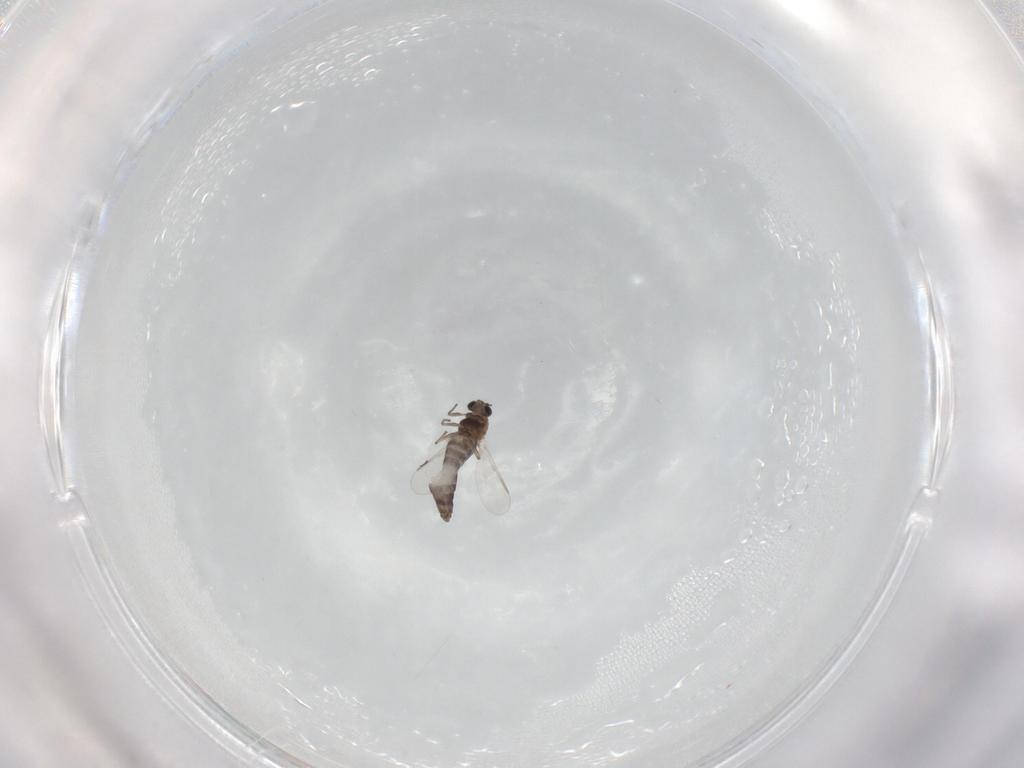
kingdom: Animalia
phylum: Arthropoda
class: Insecta
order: Diptera
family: Chironomidae
